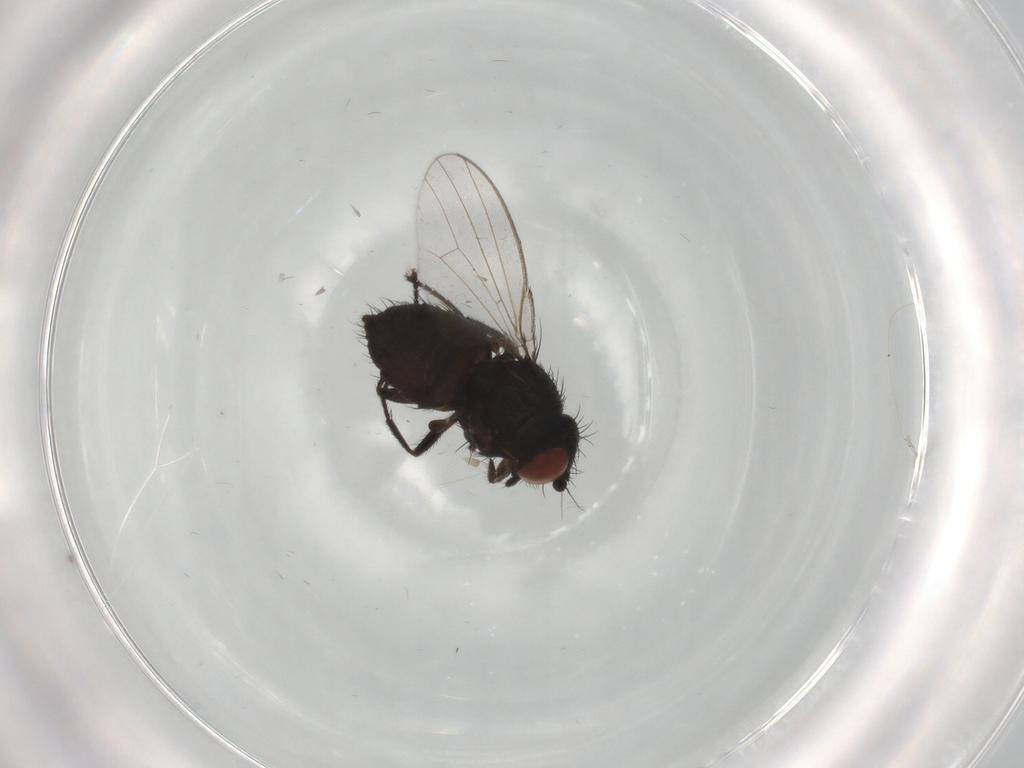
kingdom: Animalia
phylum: Arthropoda
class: Insecta
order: Diptera
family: Milichiidae
